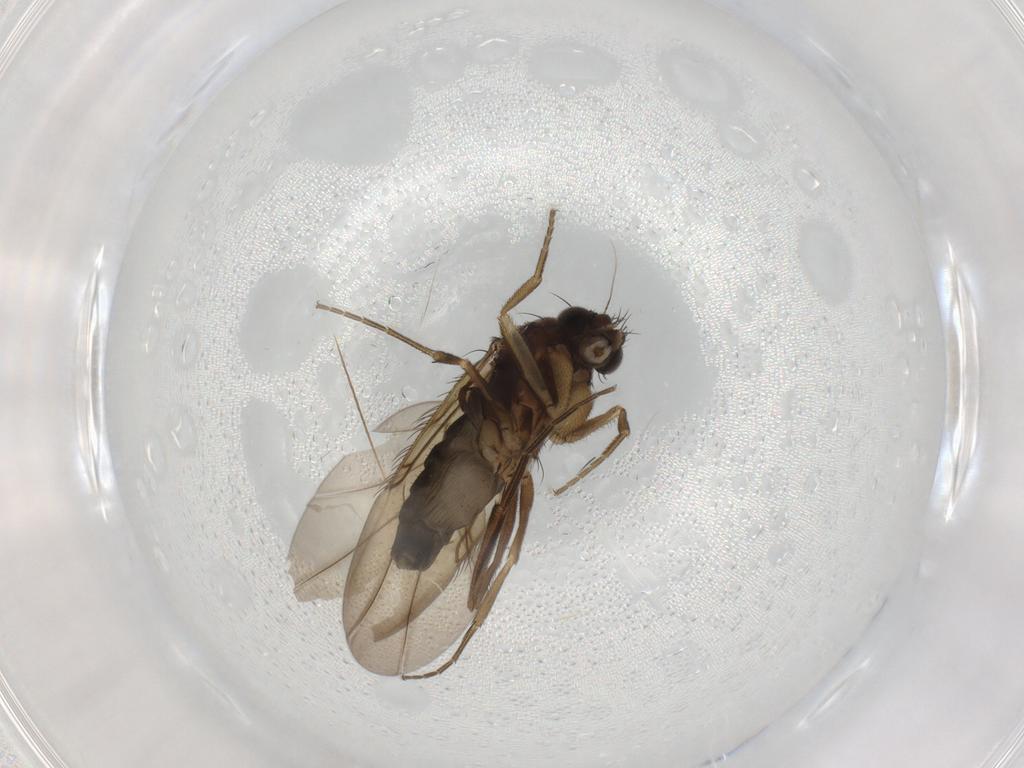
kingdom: Animalia
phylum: Arthropoda
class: Insecta
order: Diptera
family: Phoridae
